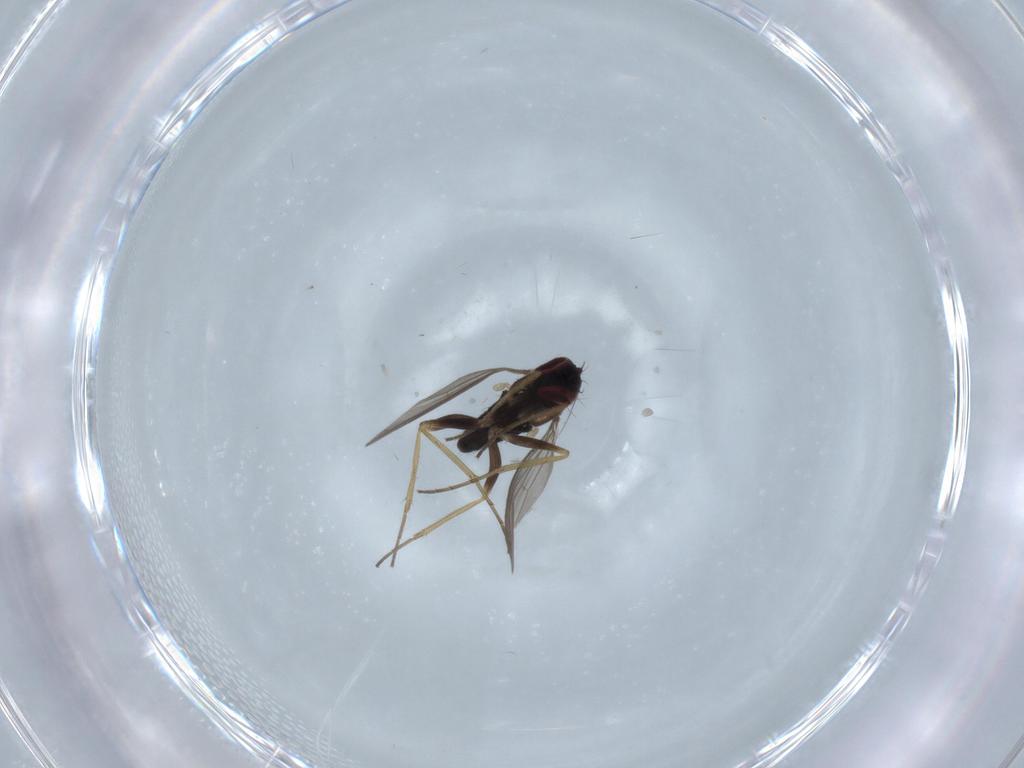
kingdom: Animalia
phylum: Arthropoda
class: Insecta
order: Diptera
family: Dolichopodidae
